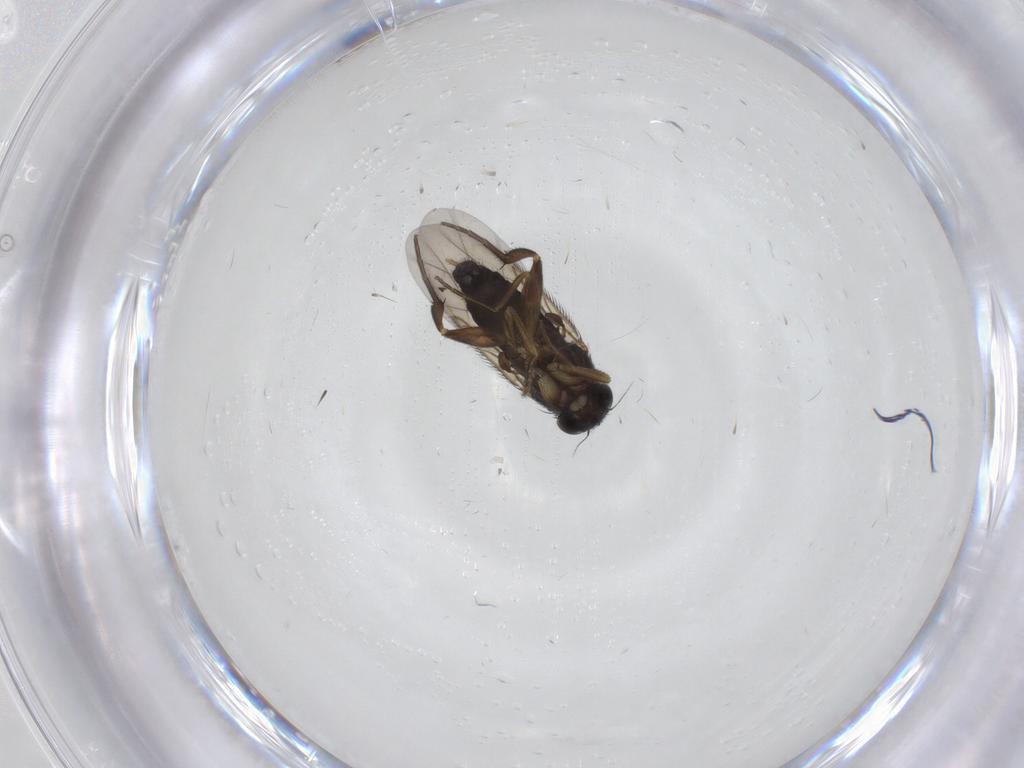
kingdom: Animalia
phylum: Arthropoda
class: Insecta
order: Diptera
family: Phoridae
